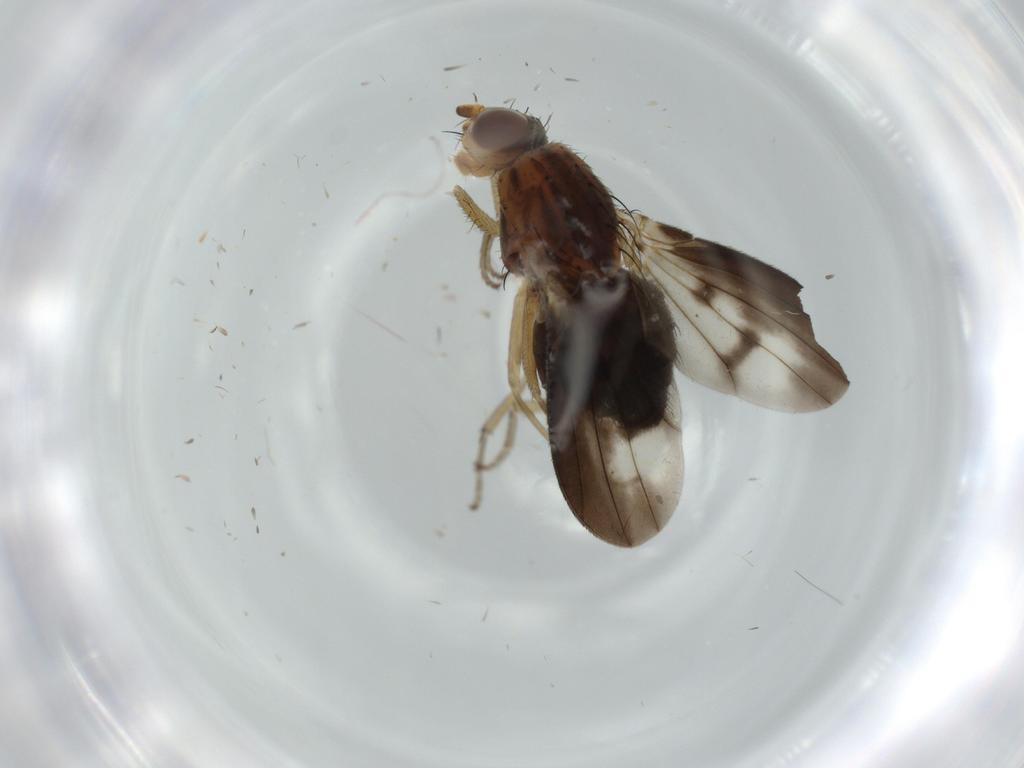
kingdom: Animalia
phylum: Arthropoda
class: Insecta
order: Diptera
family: Heleomyzidae
